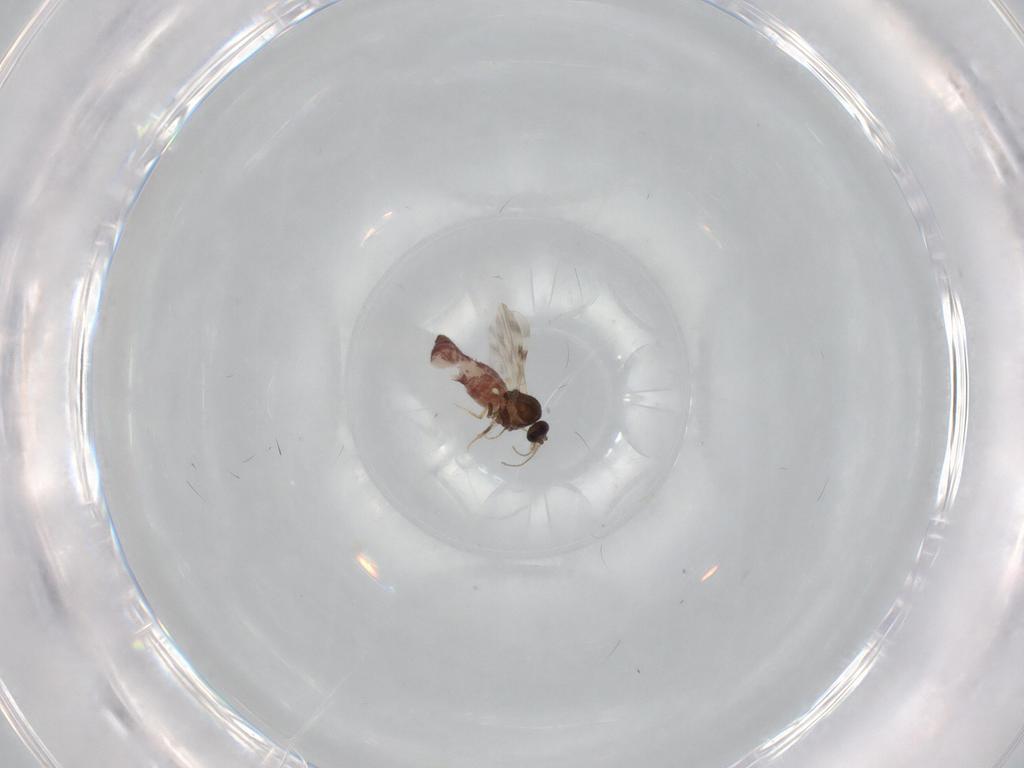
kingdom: Animalia
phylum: Arthropoda
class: Insecta
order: Diptera
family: Ceratopogonidae
